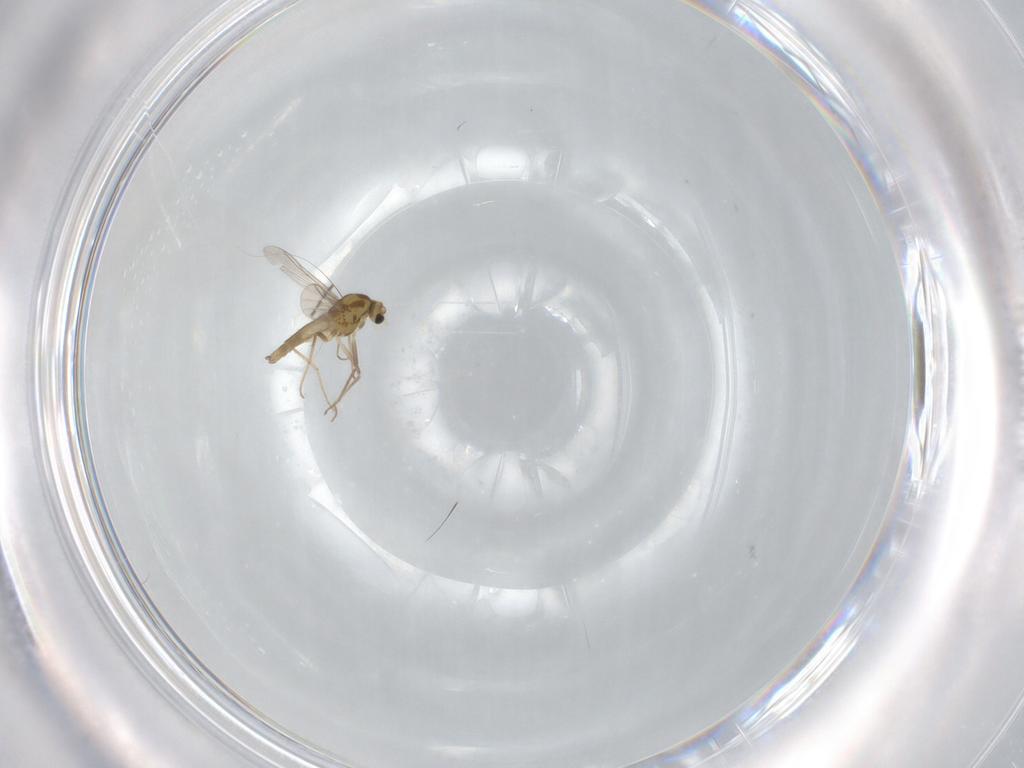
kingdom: Animalia
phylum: Arthropoda
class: Insecta
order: Diptera
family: Chironomidae
